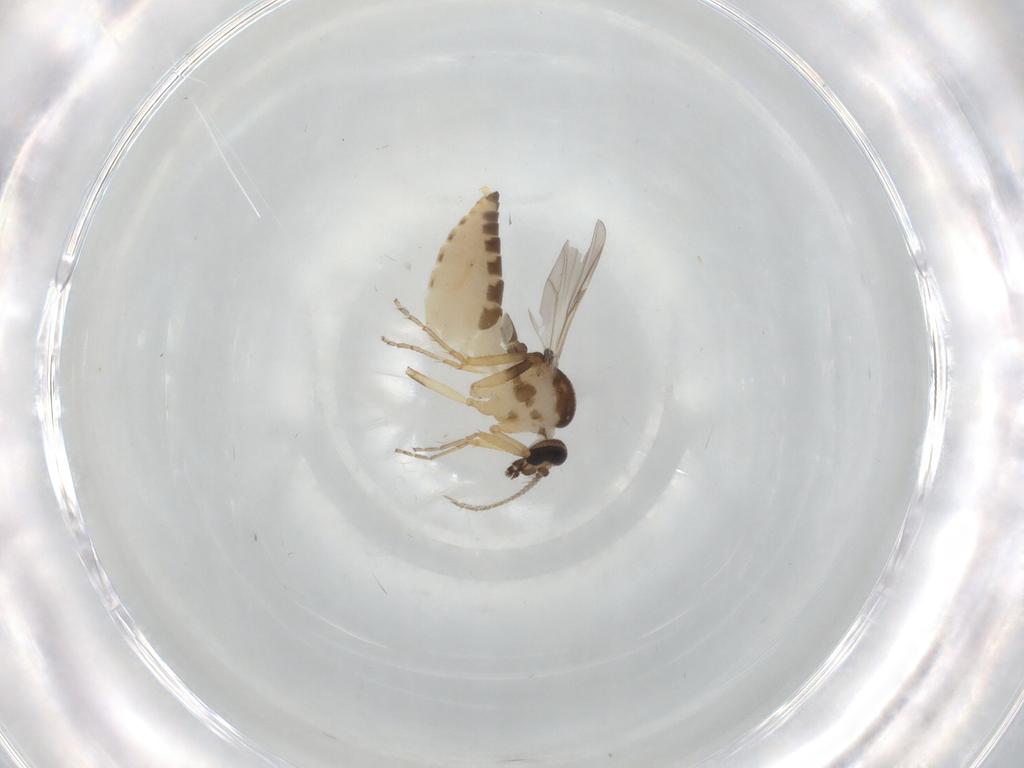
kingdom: Animalia
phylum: Arthropoda
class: Insecta
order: Diptera
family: Ceratopogonidae
